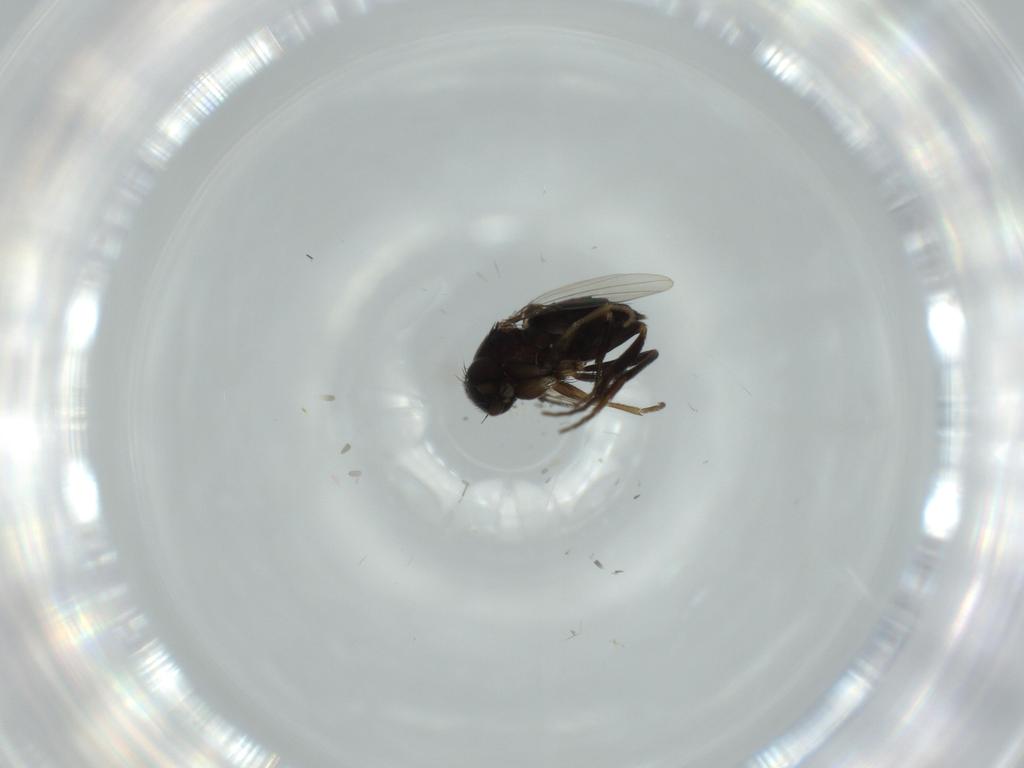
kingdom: Animalia
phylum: Arthropoda
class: Insecta
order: Diptera
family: Phoridae
